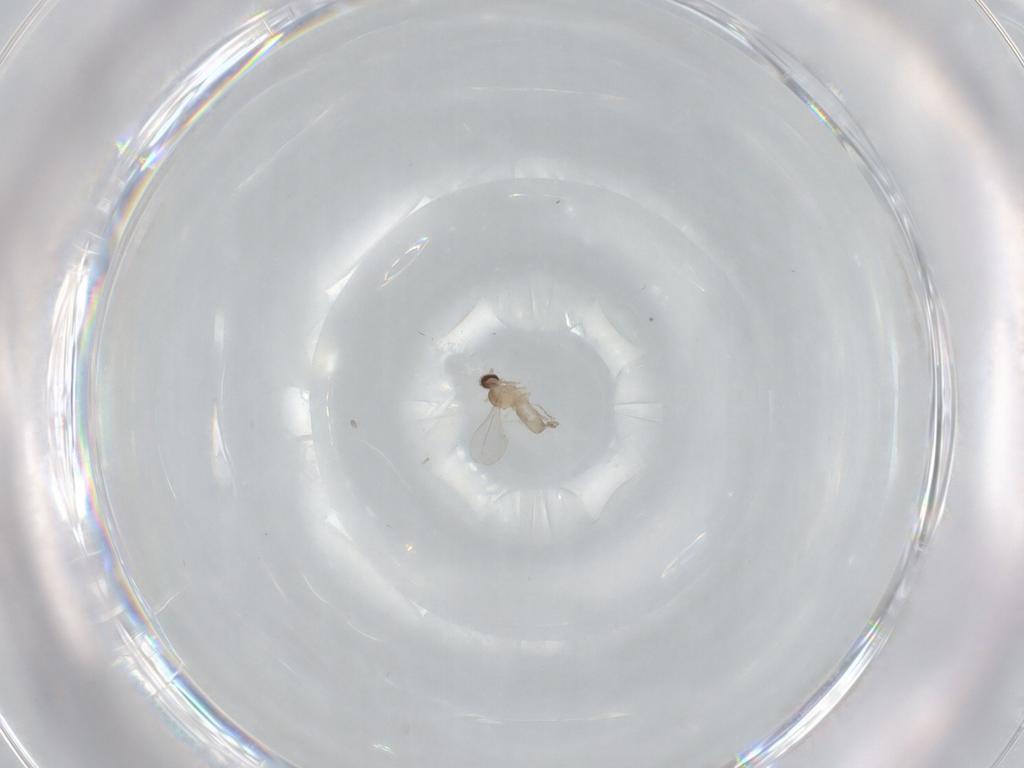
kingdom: Animalia
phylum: Arthropoda
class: Insecta
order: Diptera
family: Cecidomyiidae
